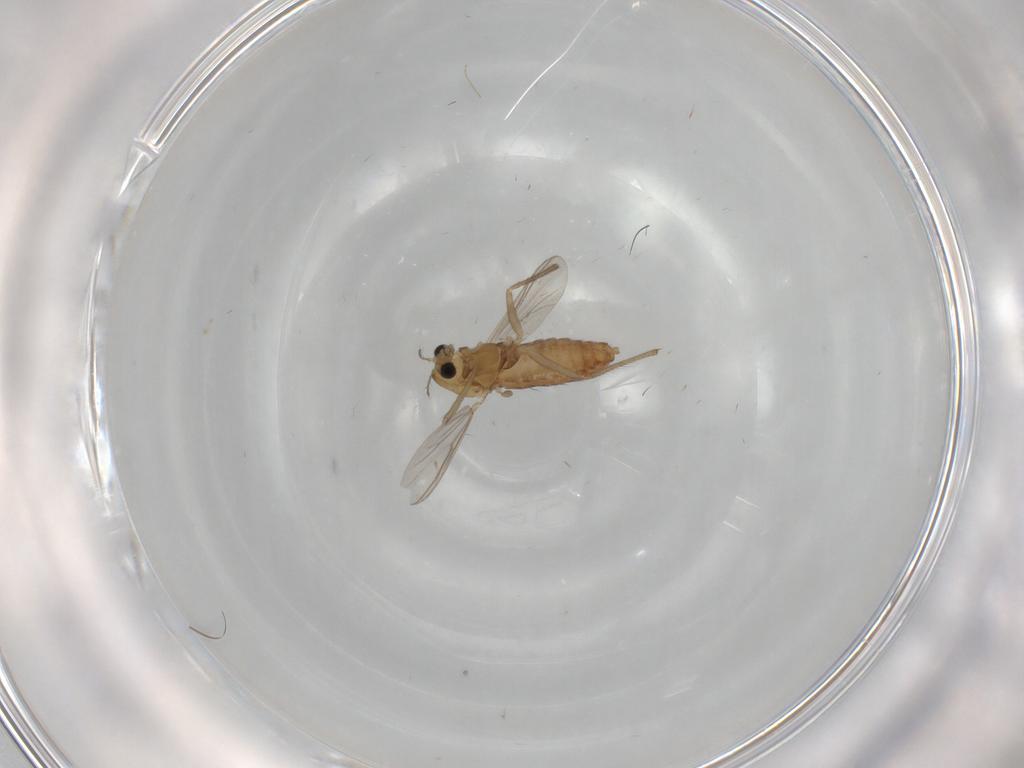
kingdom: Animalia
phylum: Arthropoda
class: Insecta
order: Diptera
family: Chironomidae
